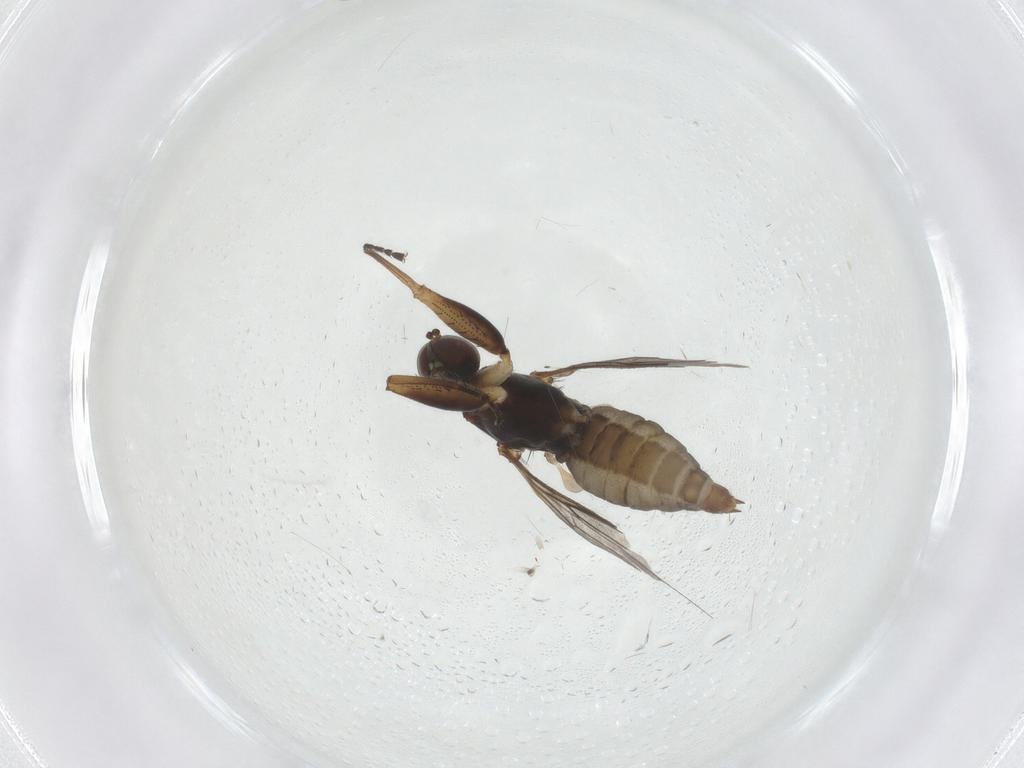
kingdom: Animalia
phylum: Arthropoda
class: Insecta
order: Diptera
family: Empididae
